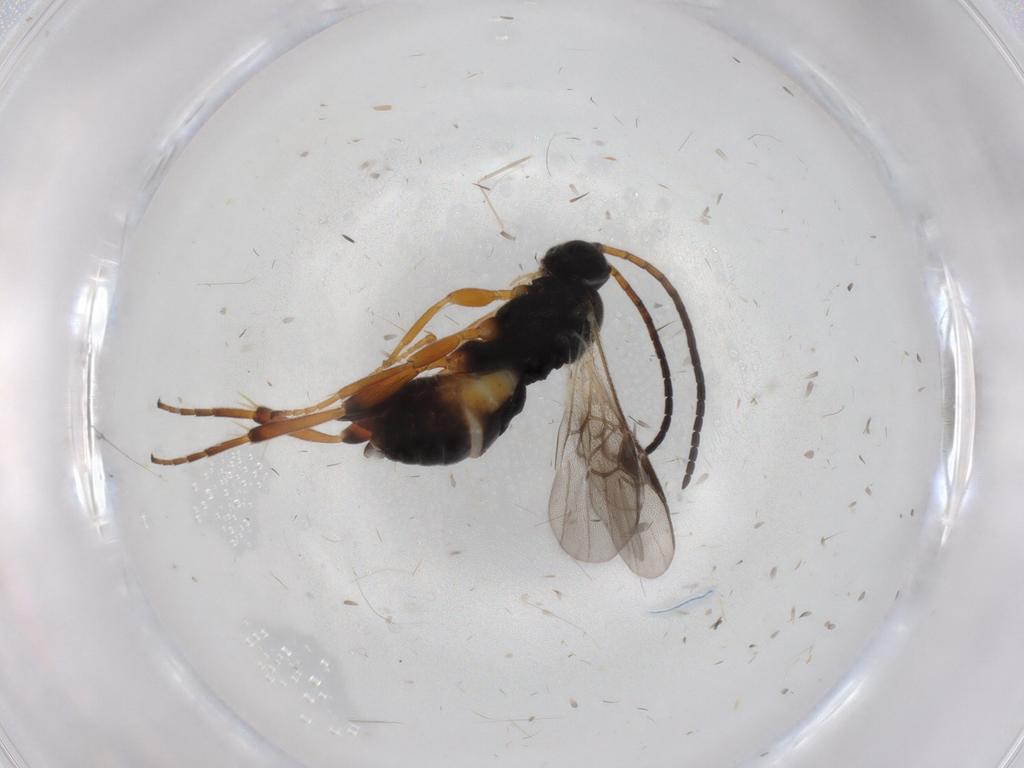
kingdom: Animalia
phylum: Arthropoda
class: Insecta
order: Hymenoptera
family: Braconidae
